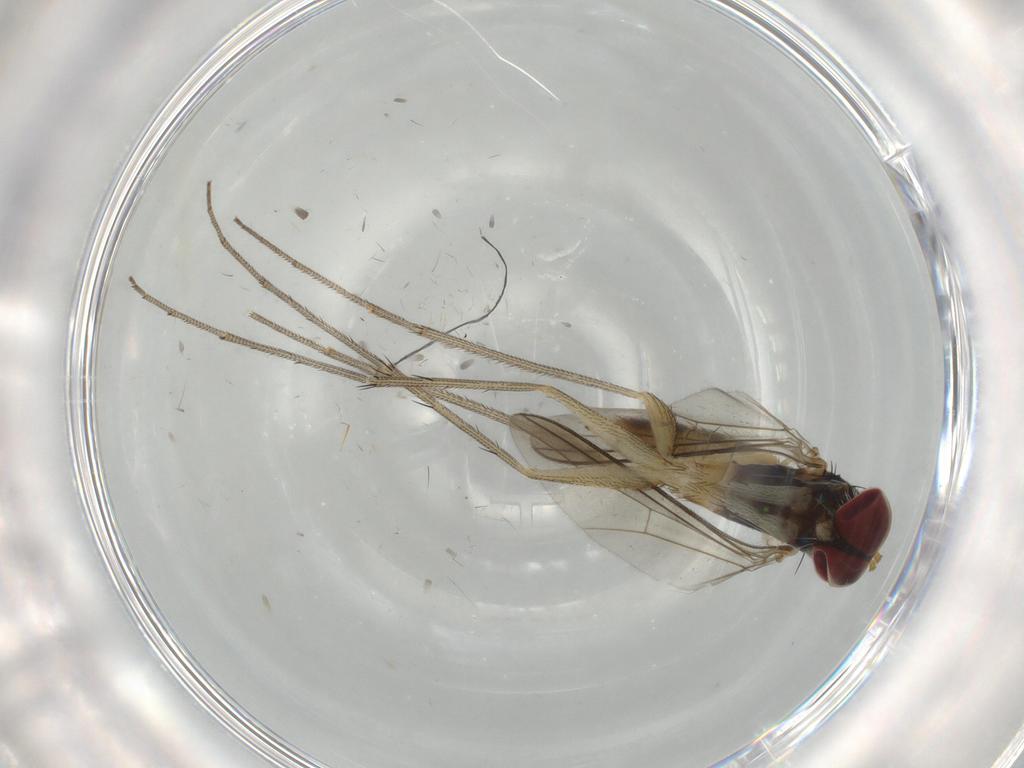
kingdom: Animalia
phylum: Arthropoda
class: Insecta
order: Diptera
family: Dolichopodidae
